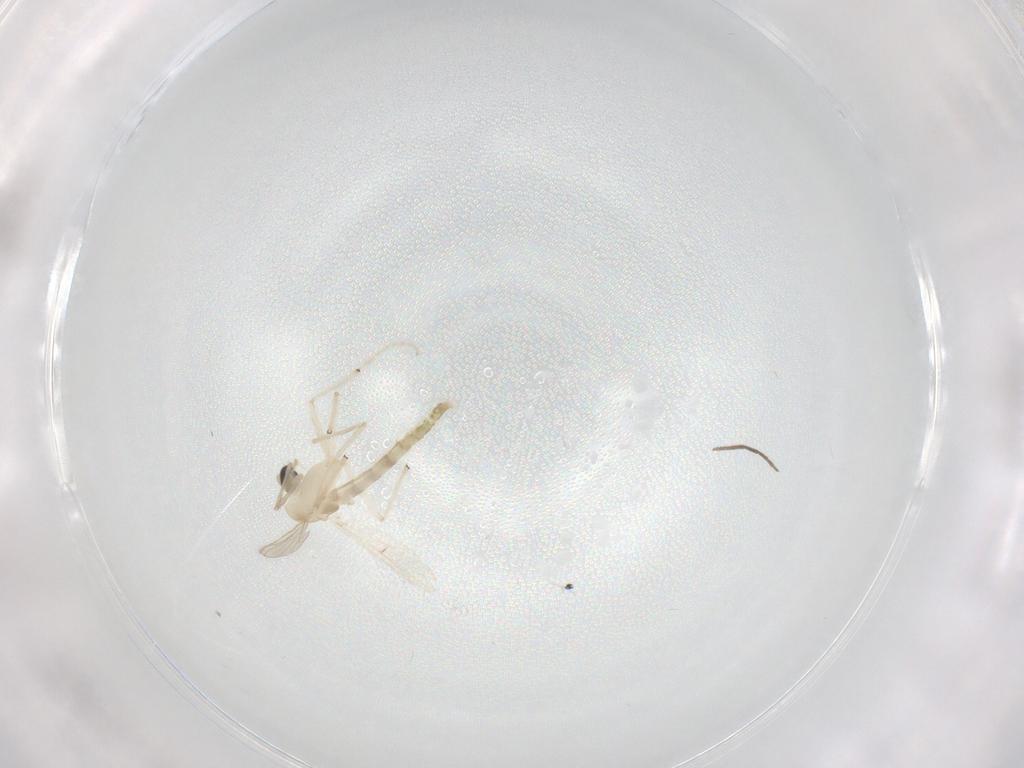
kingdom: Animalia
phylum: Arthropoda
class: Insecta
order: Diptera
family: Chironomidae
